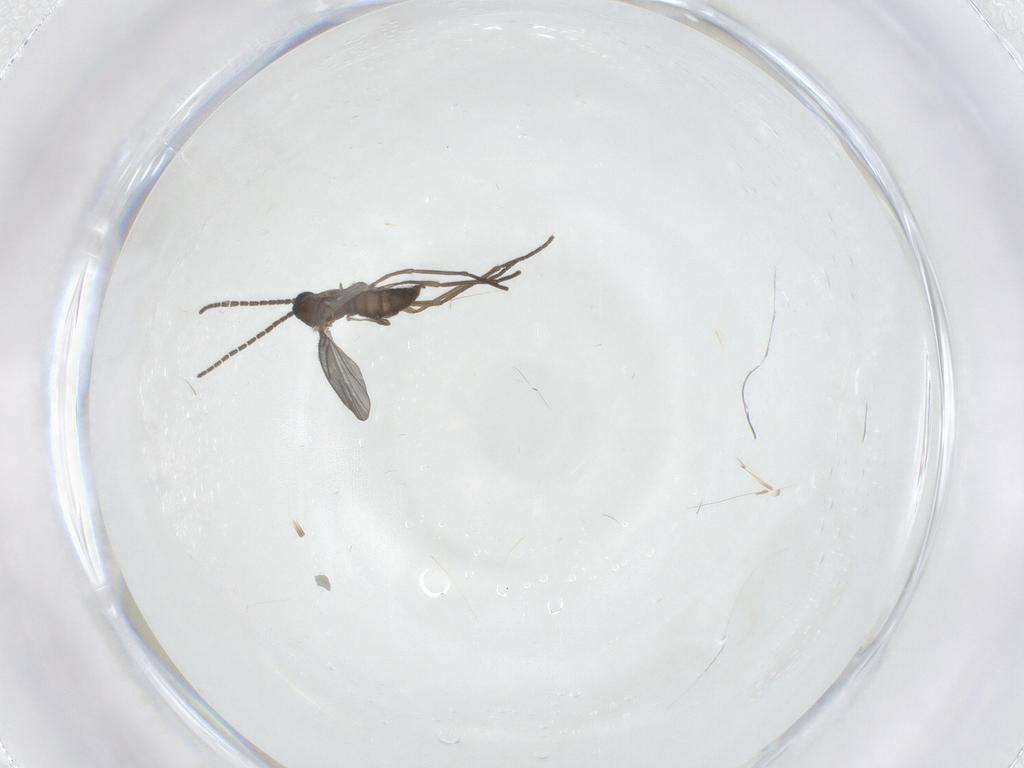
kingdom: Animalia
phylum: Arthropoda
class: Insecta
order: Diptera
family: Sciaridae
